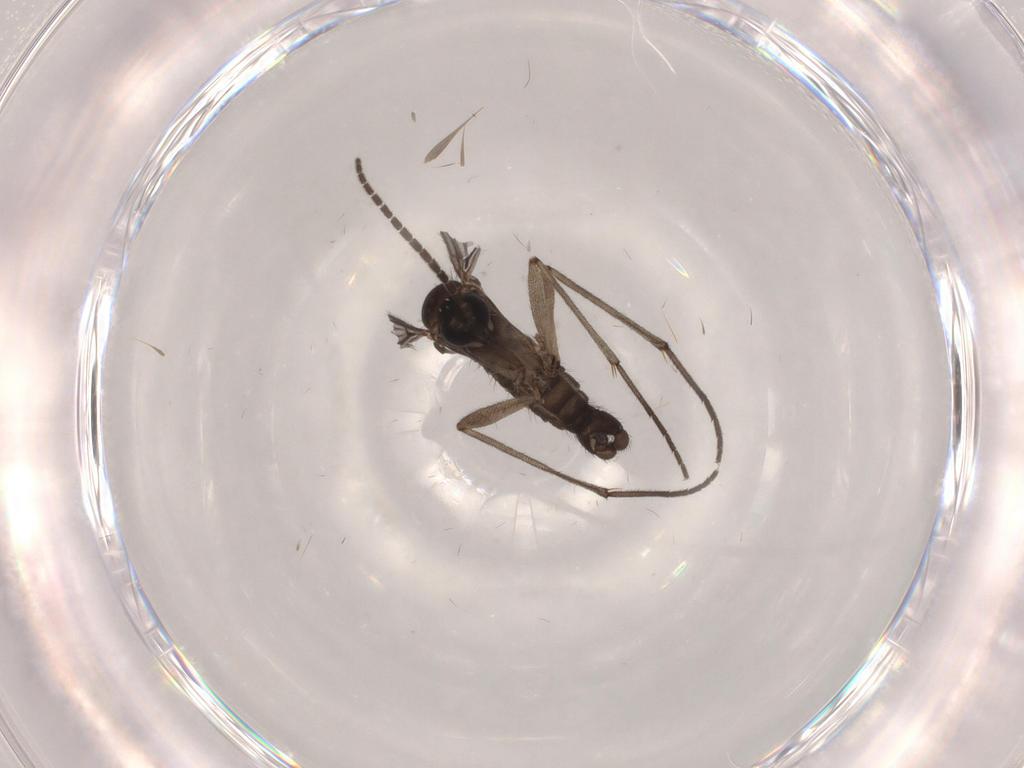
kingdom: Animalia
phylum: Arthropoda
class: Insecta
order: Diptera
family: Sciaridae
